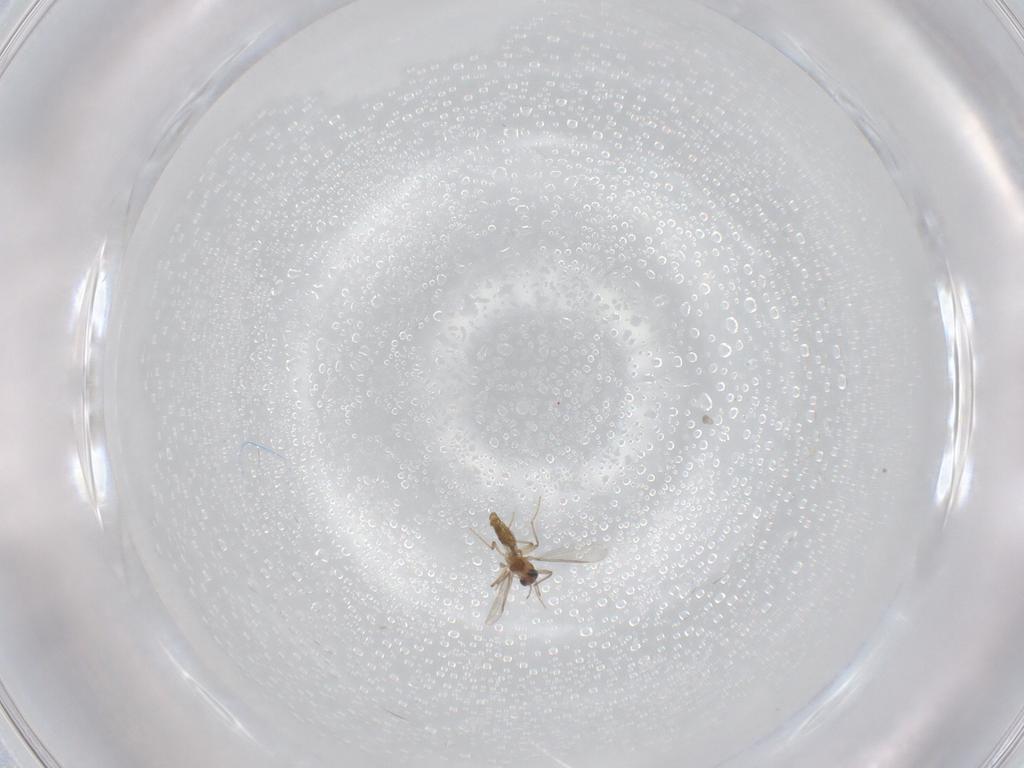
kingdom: Animalia
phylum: Arthropoda
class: Insecta
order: Diptera
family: Chironomidae
